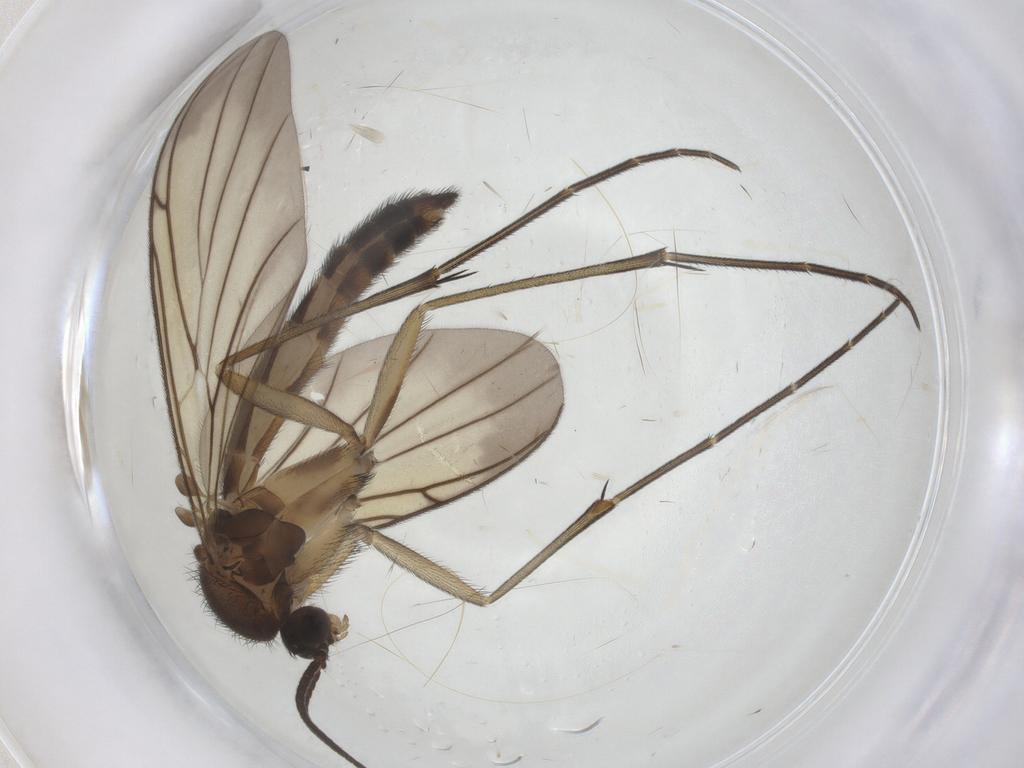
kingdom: Animalia
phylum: Arthropoda
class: Insecta
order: Diptera
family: Keroplatidae
